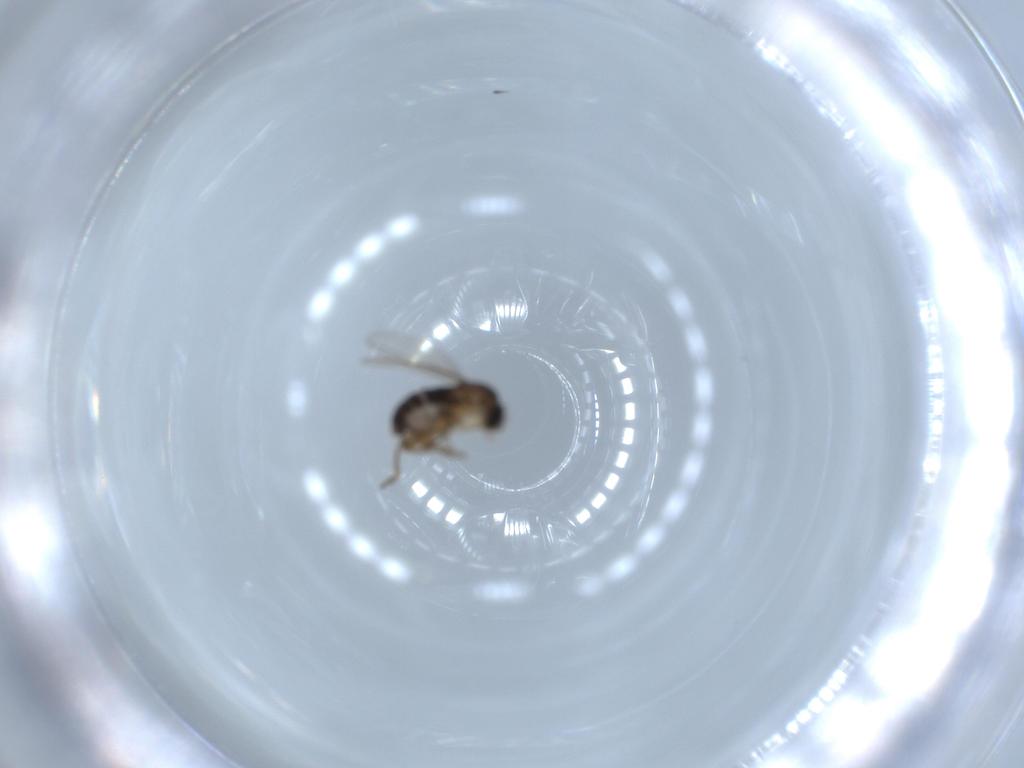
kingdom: Animalia
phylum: Arthropoda
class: Insecta
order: Diptera
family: Phoridae
